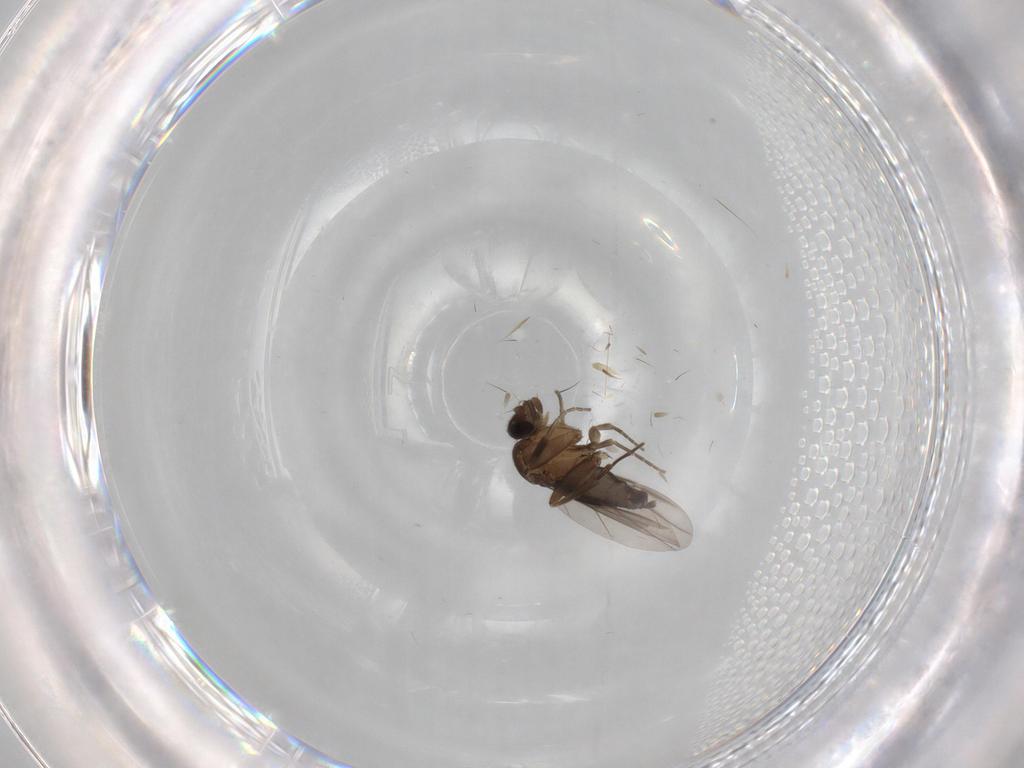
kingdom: Animalia
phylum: Arthropoda
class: Insecta
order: Diptera
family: Phoridae
